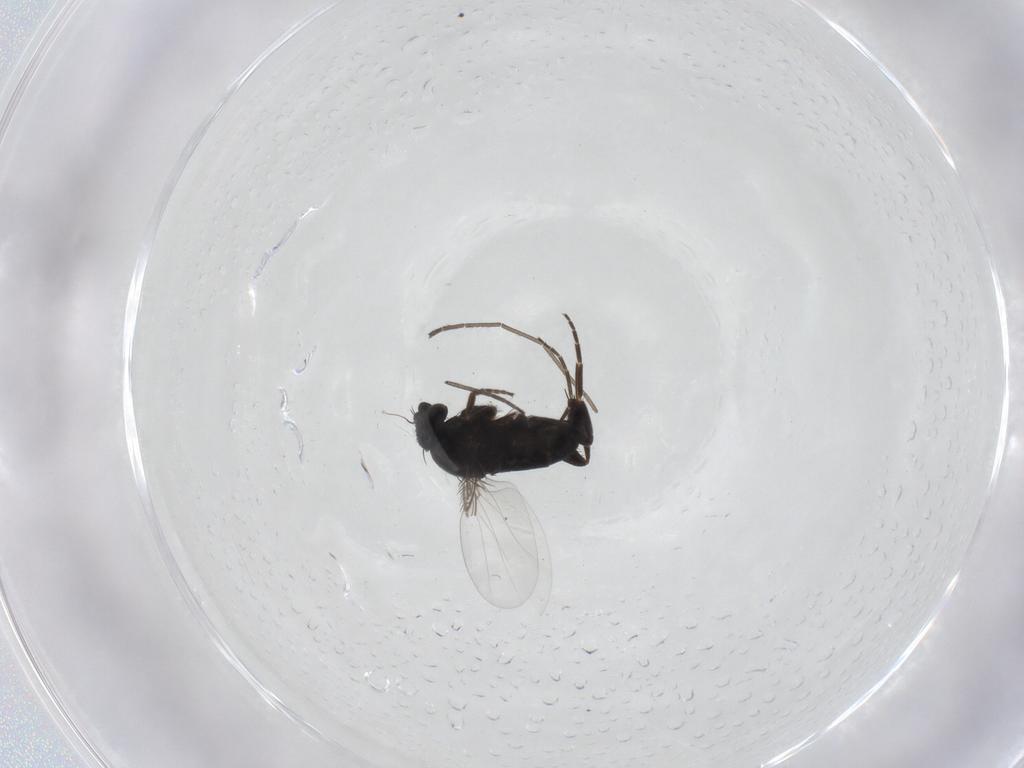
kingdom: Animalia
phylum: Arthropoda
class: Insecta
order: Diptera
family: Phoridae
